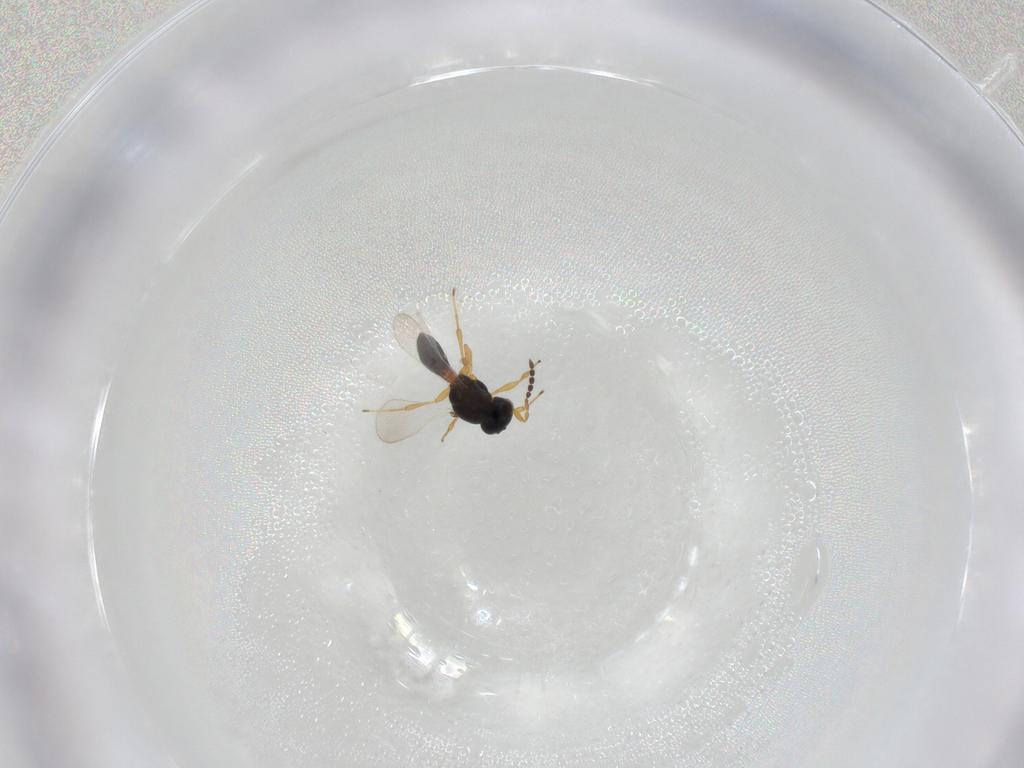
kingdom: Animalia
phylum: Arthropoda
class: Insecta
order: Hymenoptera
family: Platygastridae
